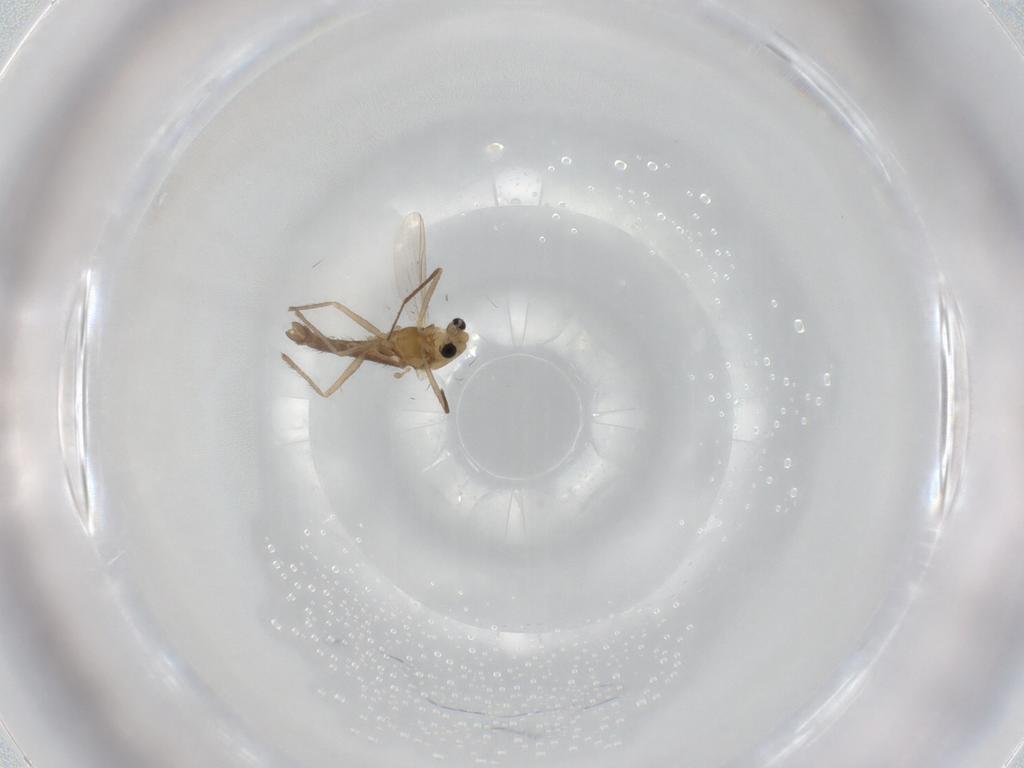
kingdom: Animalia
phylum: Arthropoda
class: Insecta
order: Diptera
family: Chironomidae
